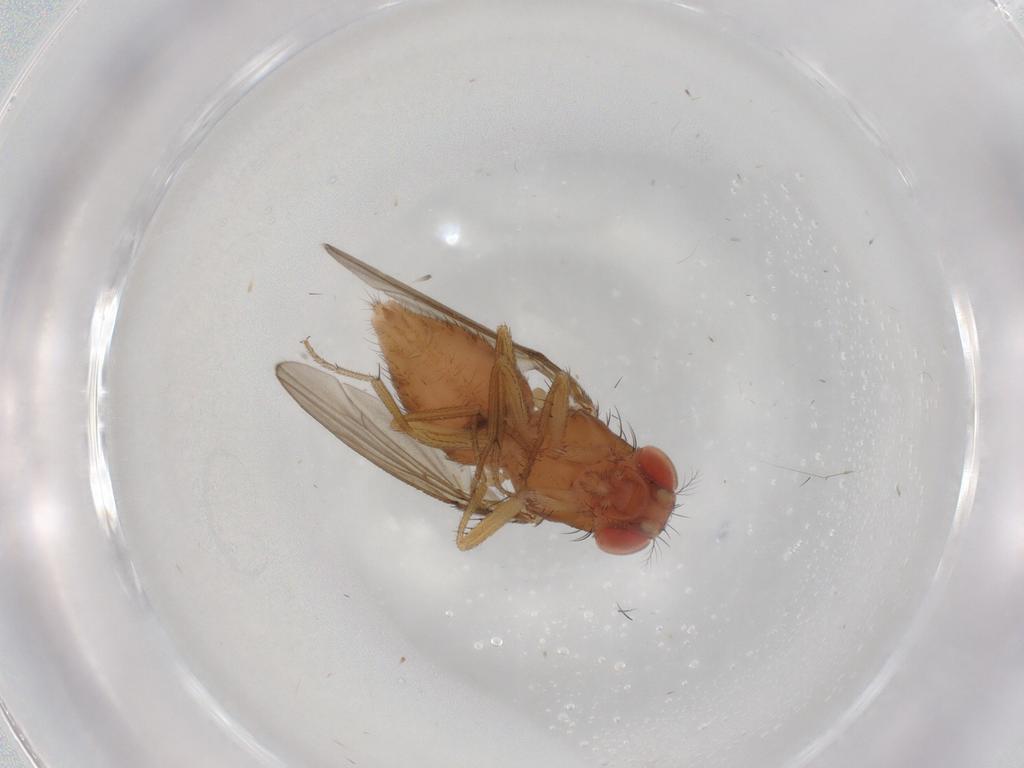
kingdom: Animalia
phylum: Arthropoda
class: Insecta
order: Diptera
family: Drosophilidae
